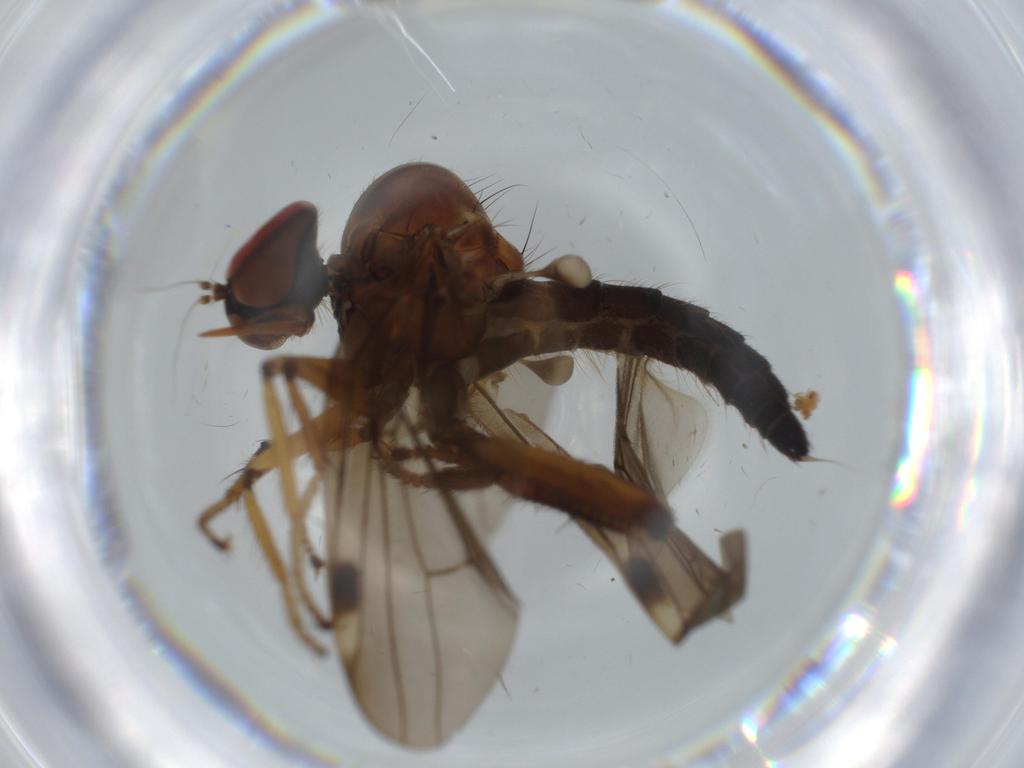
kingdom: Animalia
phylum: Arthropoda
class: Insecta
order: Diptera
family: Hybotidae
